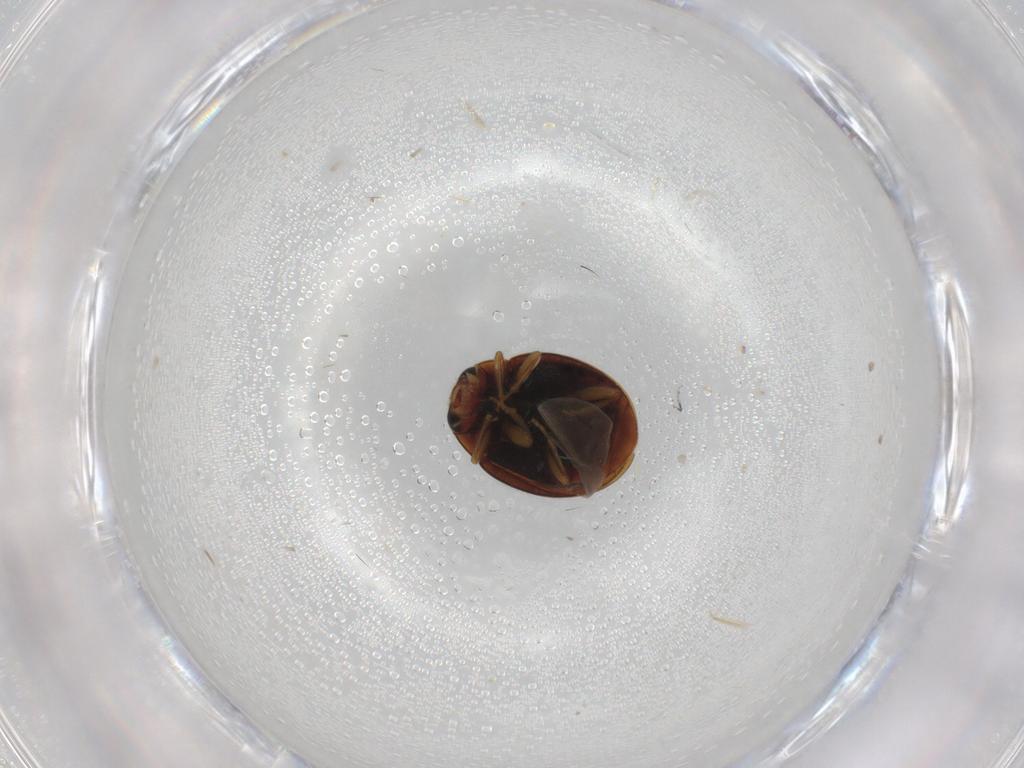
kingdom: Animalia
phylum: Arthropoda
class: Insecta
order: Coleoptera
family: Coccinellidae
